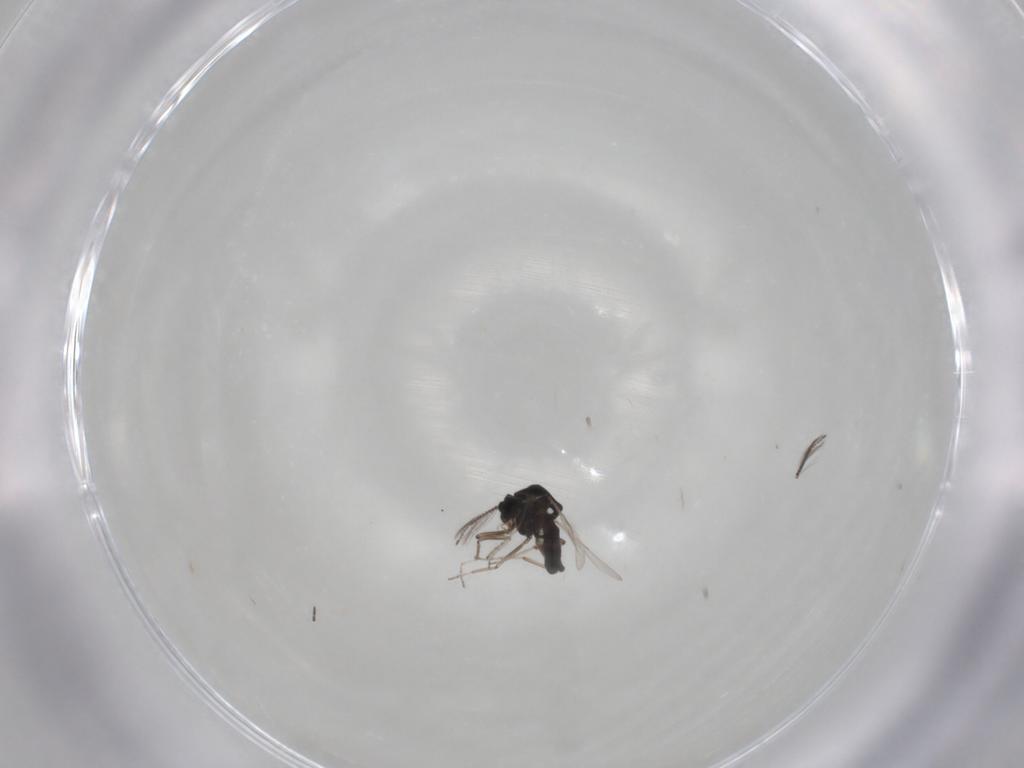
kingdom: Animalia
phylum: Arthropoda
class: Insecta
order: Diptera
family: Ceratopogonidae
